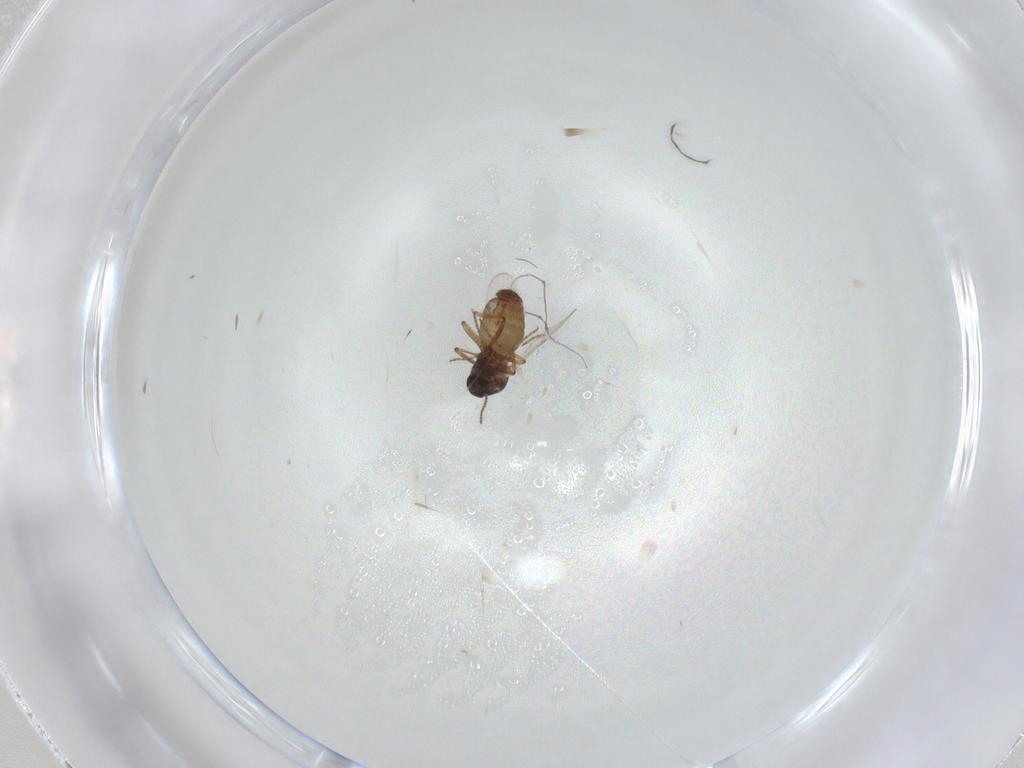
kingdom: Animalia
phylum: Arthropoda
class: Insecta
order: Diptera
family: Ceratopogonidae
